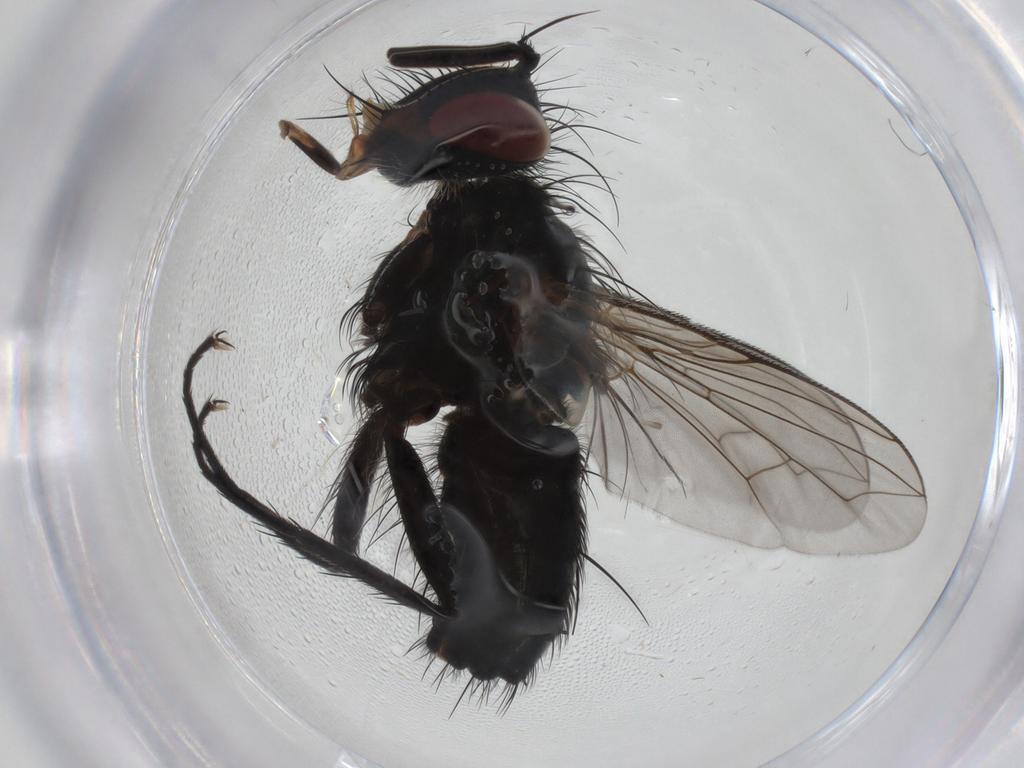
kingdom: Animalia
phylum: Arthropoda
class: Insecta
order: Diptera
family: Tachinidae
